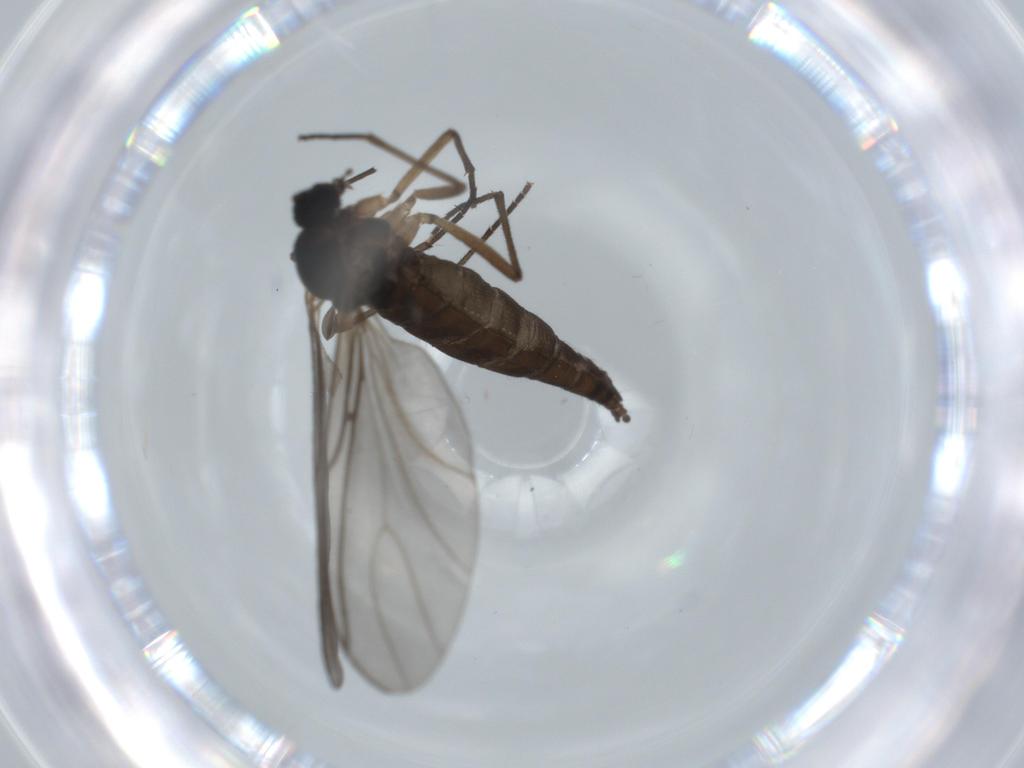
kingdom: Animalia
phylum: Arthropoda
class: Insecta
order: Diptera
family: Sciaridae
